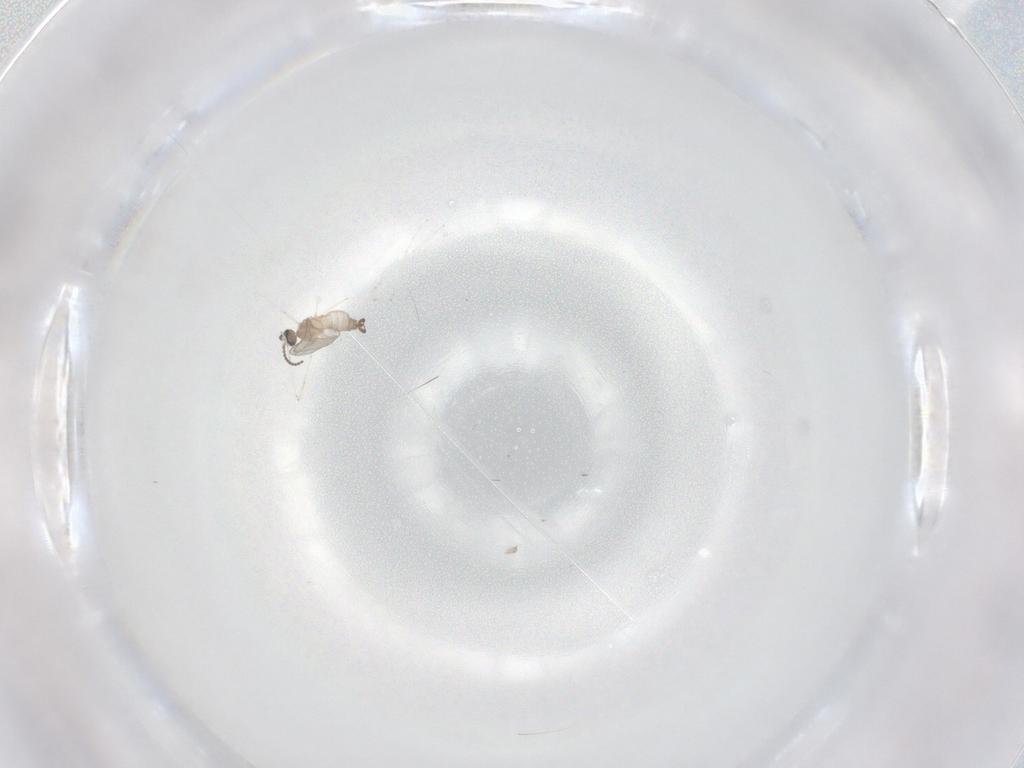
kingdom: Animalia
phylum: Arthropoda
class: Insecta
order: Diptera
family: Cecidomyiidae
